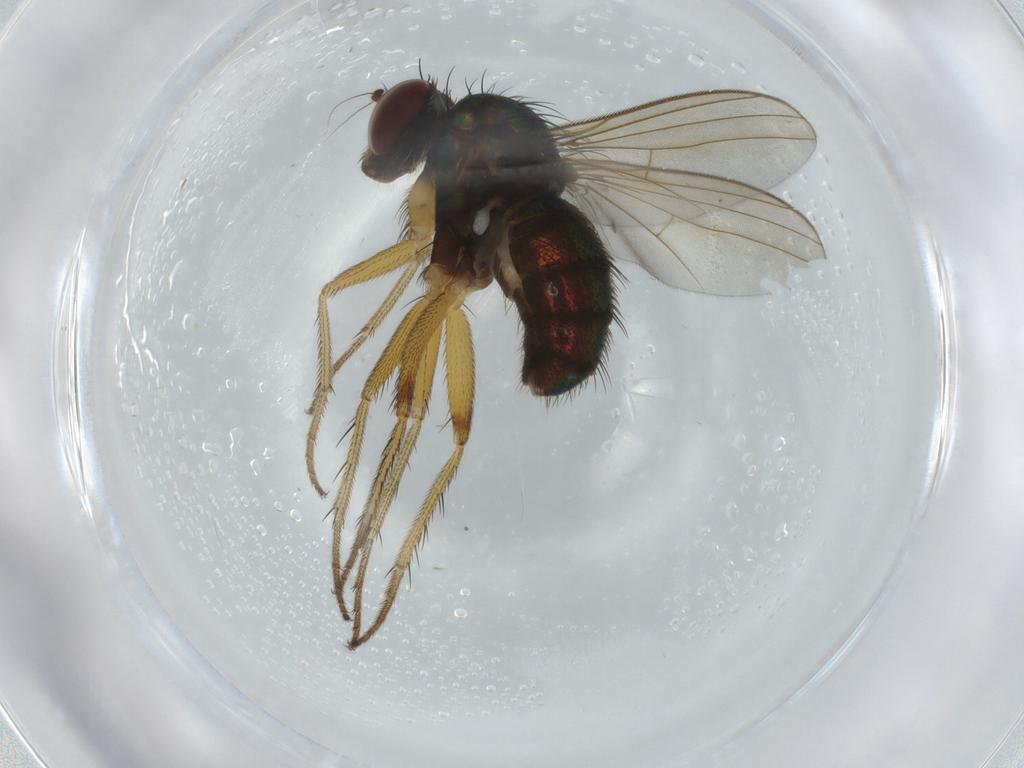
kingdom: Animalia
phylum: Arthropoda
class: Insecta
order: Diptera
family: Dolichopodidae
